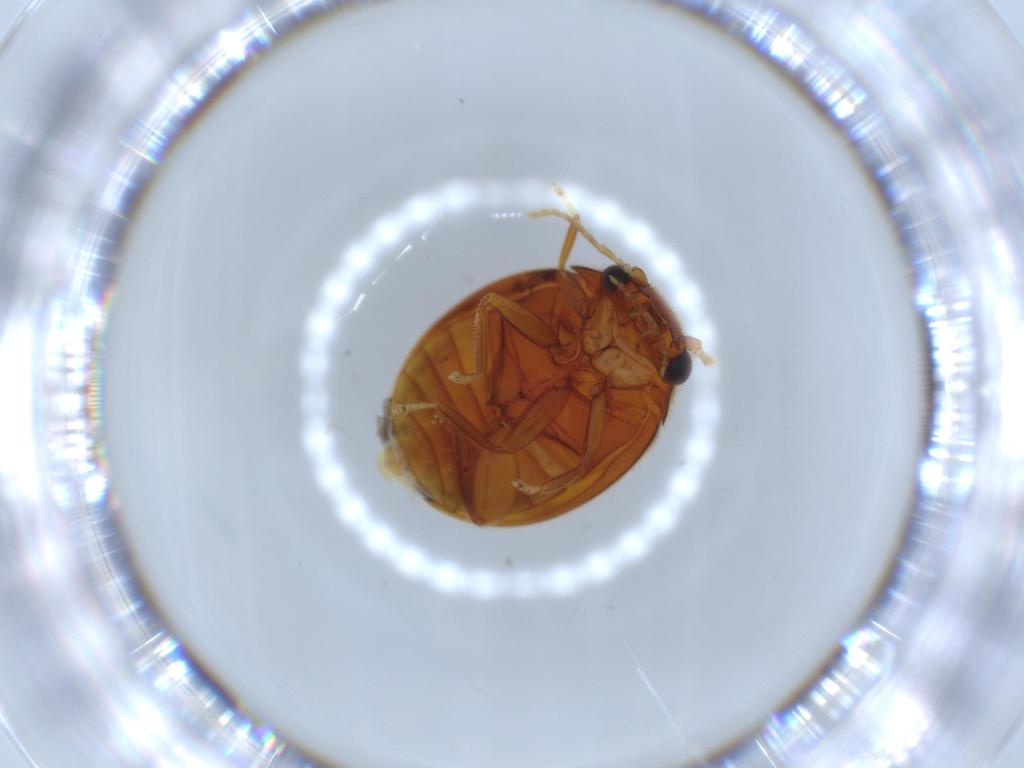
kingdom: Animalia
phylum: Arthropoda
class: Insecta
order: Coleoptera
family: Scirtidae
